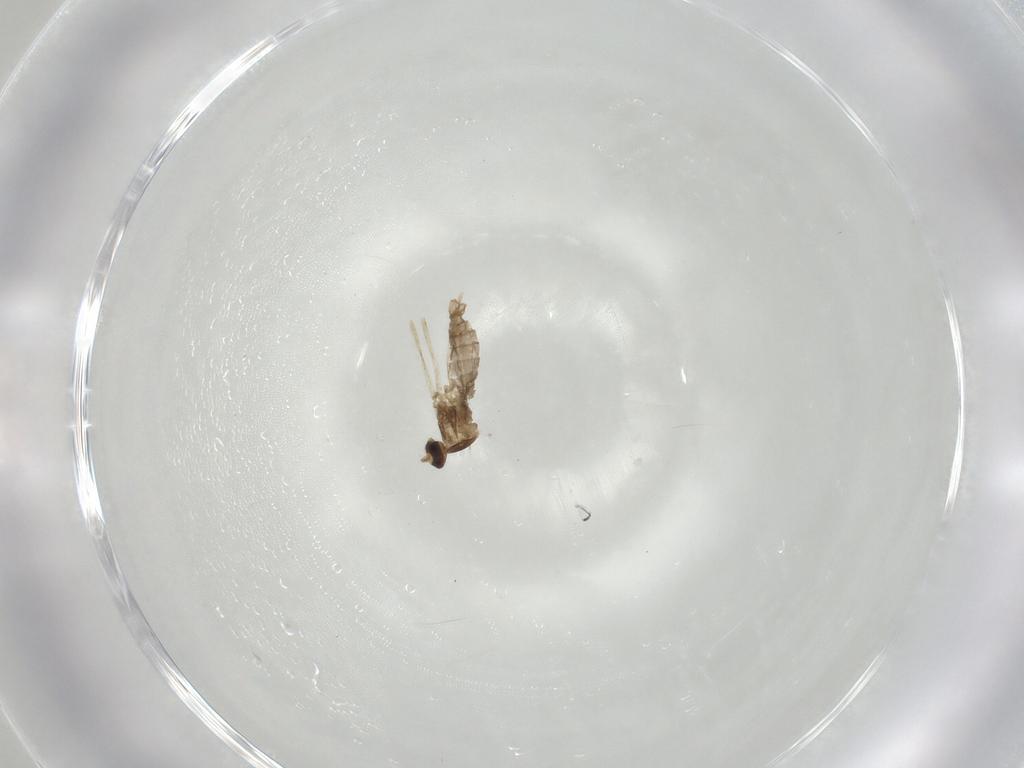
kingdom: Animalia
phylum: Arthropoda
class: Insecta
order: Diptera
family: Cecidomyiidae
